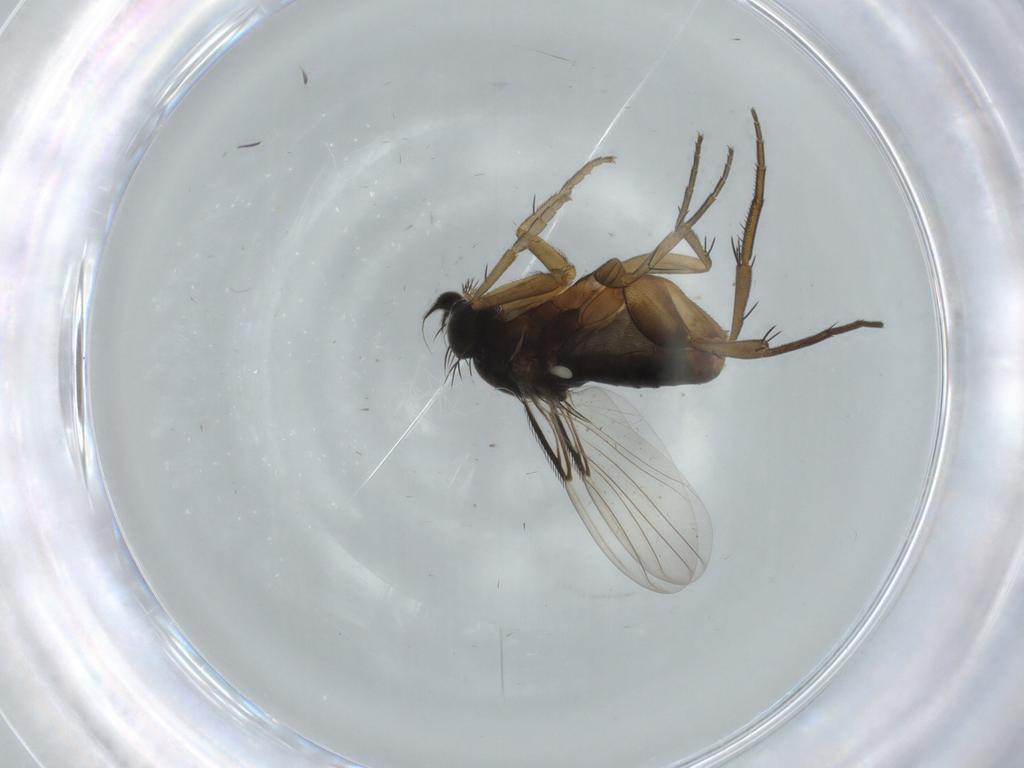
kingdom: Animalia
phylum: Arthropoda
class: Insecta
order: Diptera
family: Phoridae
